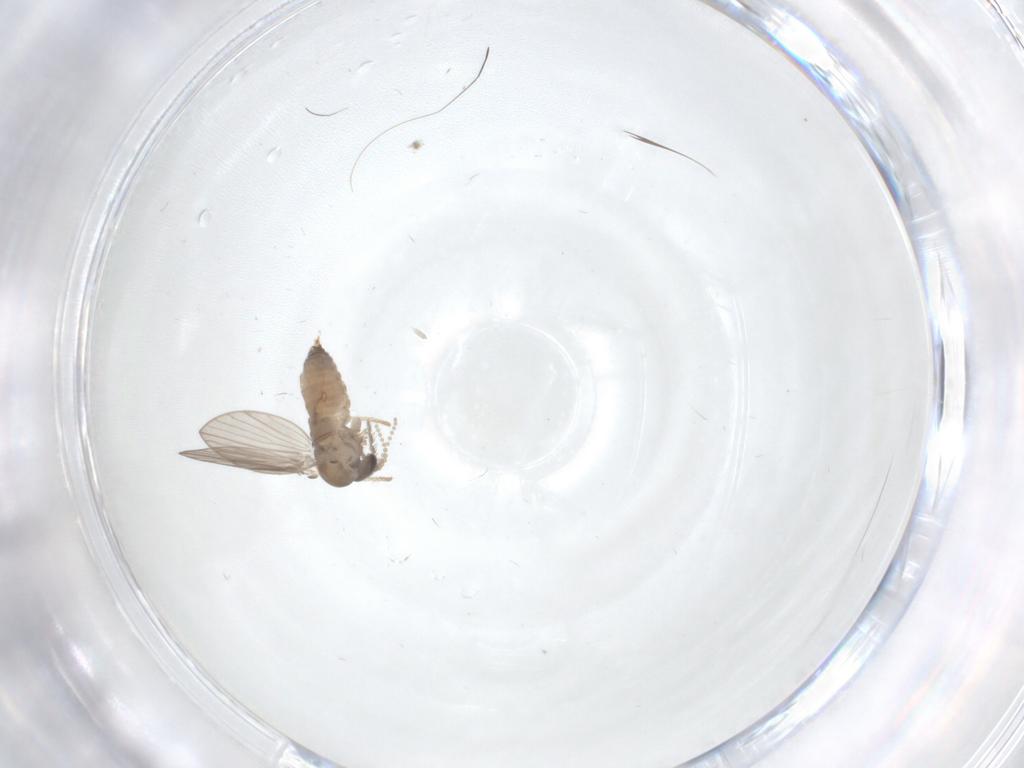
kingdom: Animalia
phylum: Arthropoda
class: Insecta
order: Diptera
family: Psychodidae
